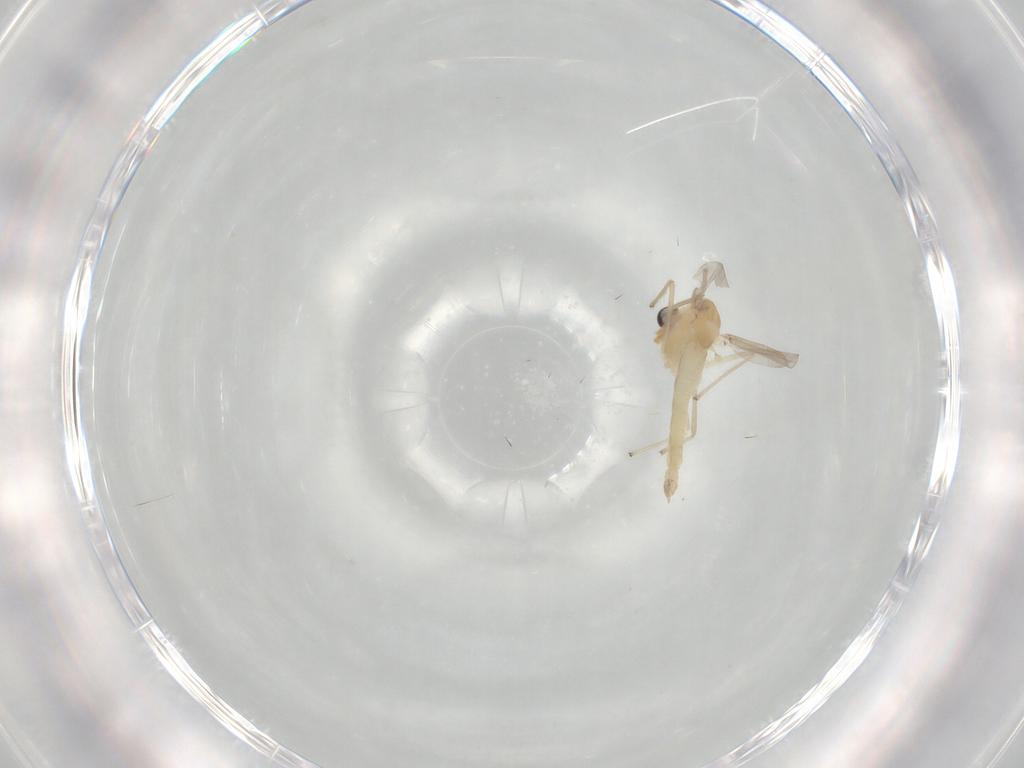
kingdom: Animalia
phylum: Arthropoda
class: Insecta
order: Diptera
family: Chironomidae
